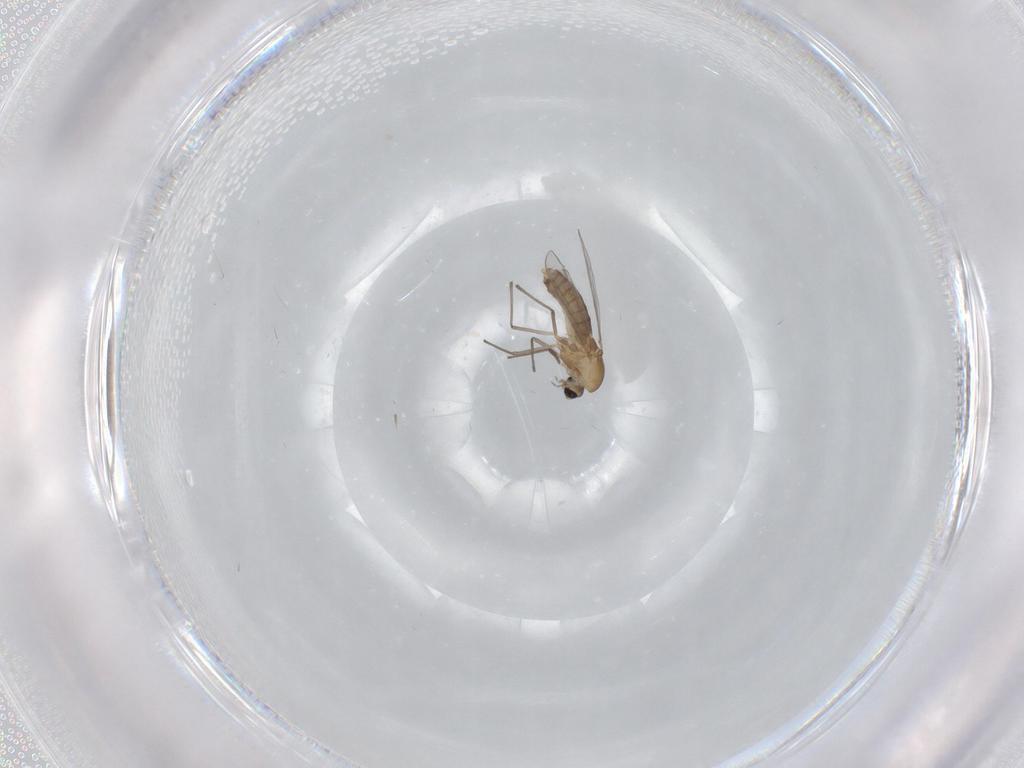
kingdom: Animalia
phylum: Arthropoda
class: Insecta
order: Diptera
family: Chironomidae
